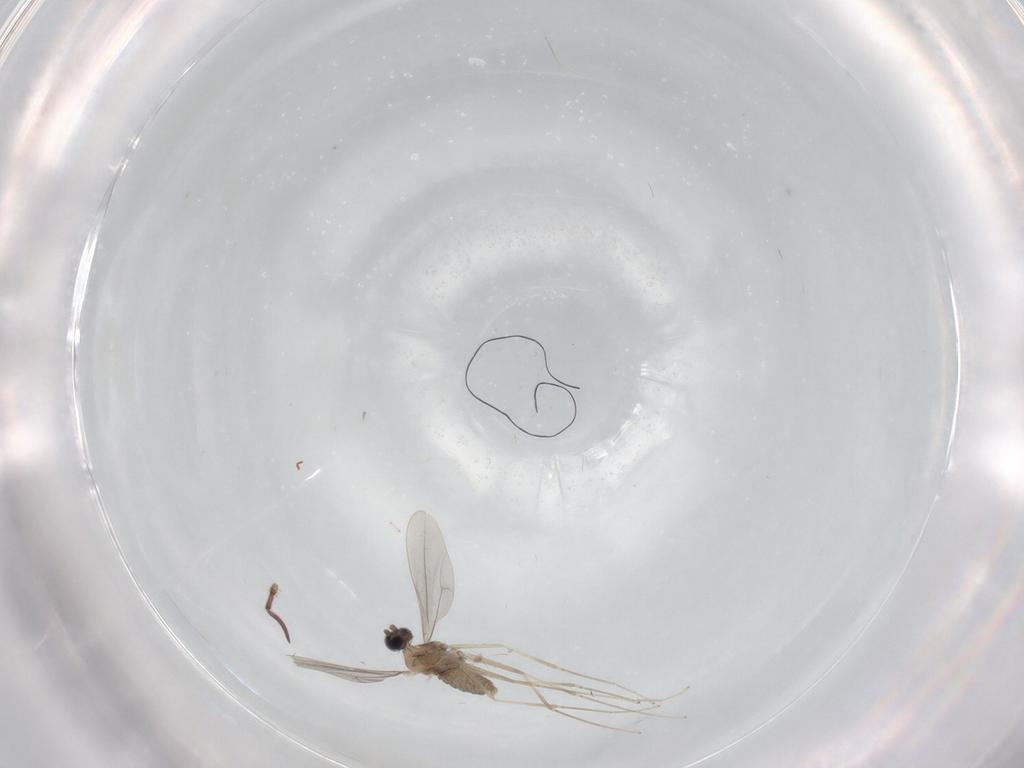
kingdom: Animalia
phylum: Arthropoda
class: Insecta
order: Diptera
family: Cecidomyiidae
